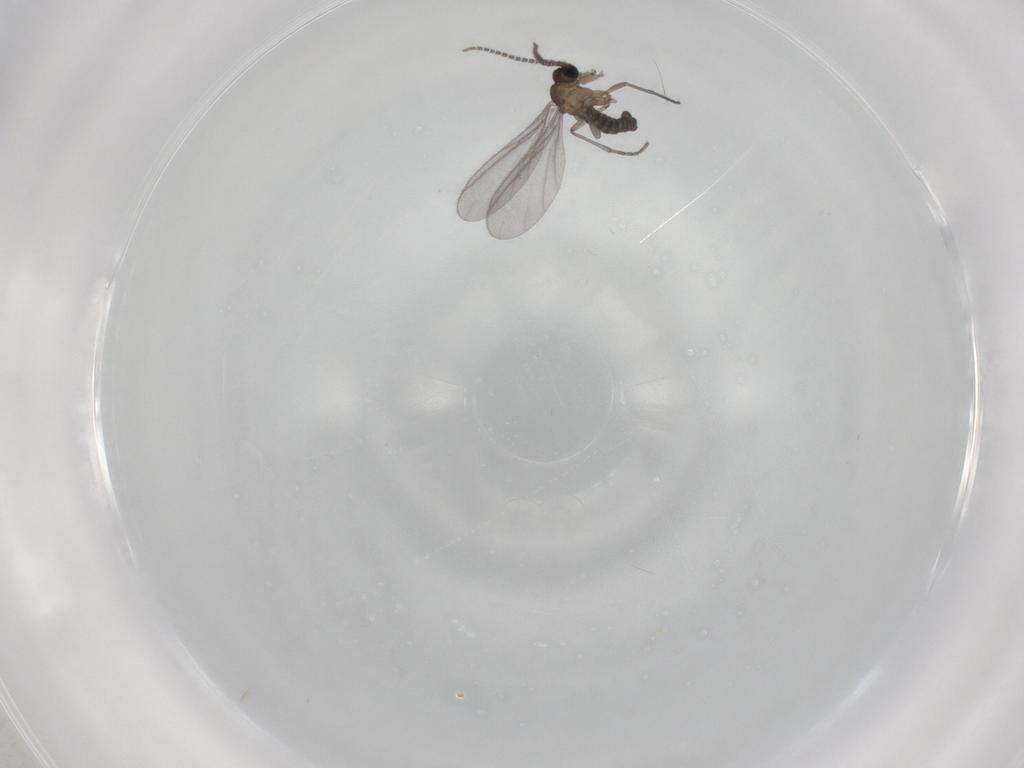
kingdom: Animalia
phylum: Arthropoda
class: Insecta
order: Diptera
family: Sciaridae
